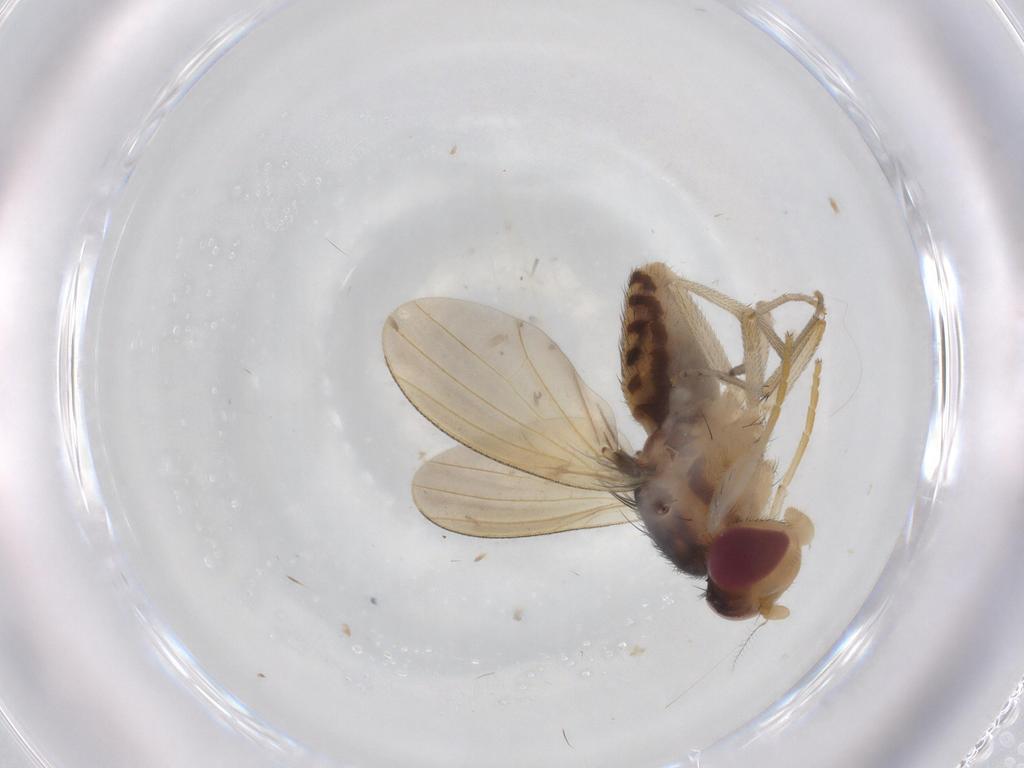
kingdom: Animalia
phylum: Arthropoda
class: Insecta
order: Diptera
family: Cecidomyiidae
